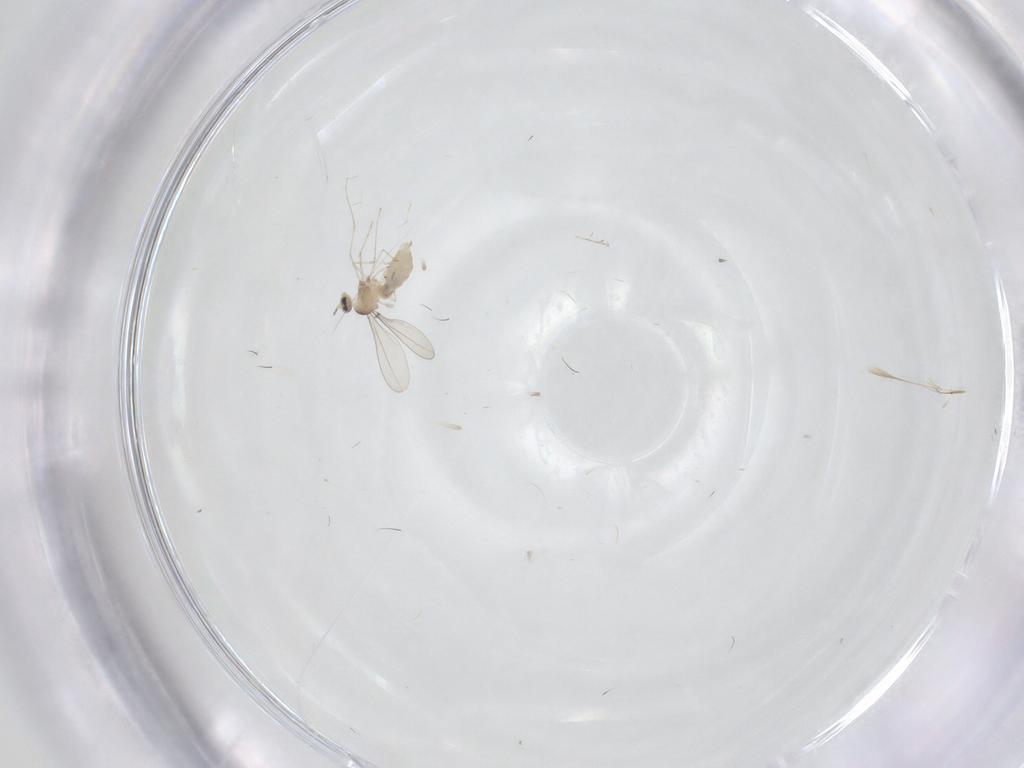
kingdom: Animalia
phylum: Arthropoda
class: Insecta
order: Diptera
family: Cecidomyiidae
